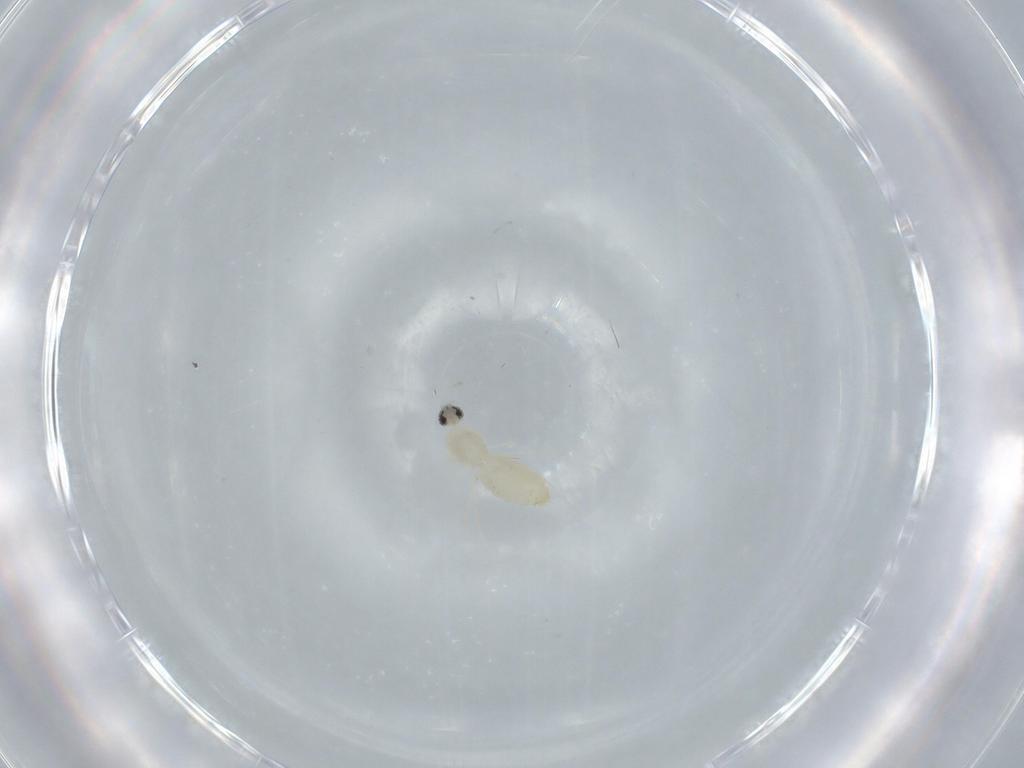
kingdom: Animalia
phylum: Arthropoda
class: Insecta
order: Diptera
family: Cecidomyiidae
